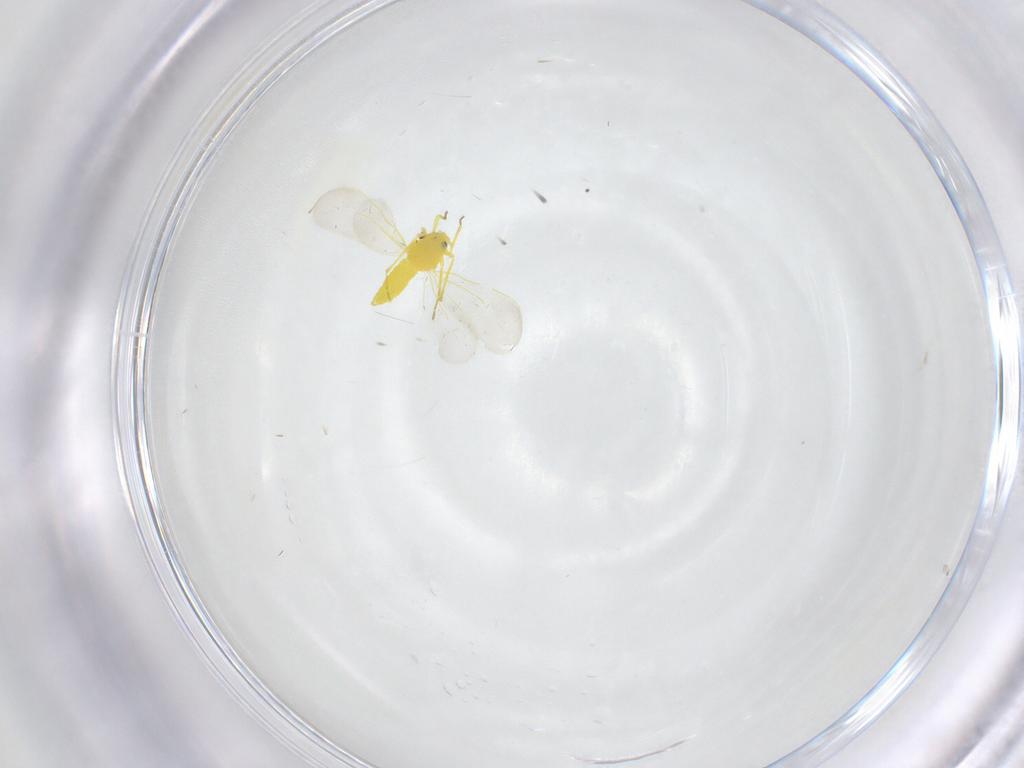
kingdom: Animalia
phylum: Arthropoda
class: Insecta
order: Hemiptera
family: Aleyrodidae
